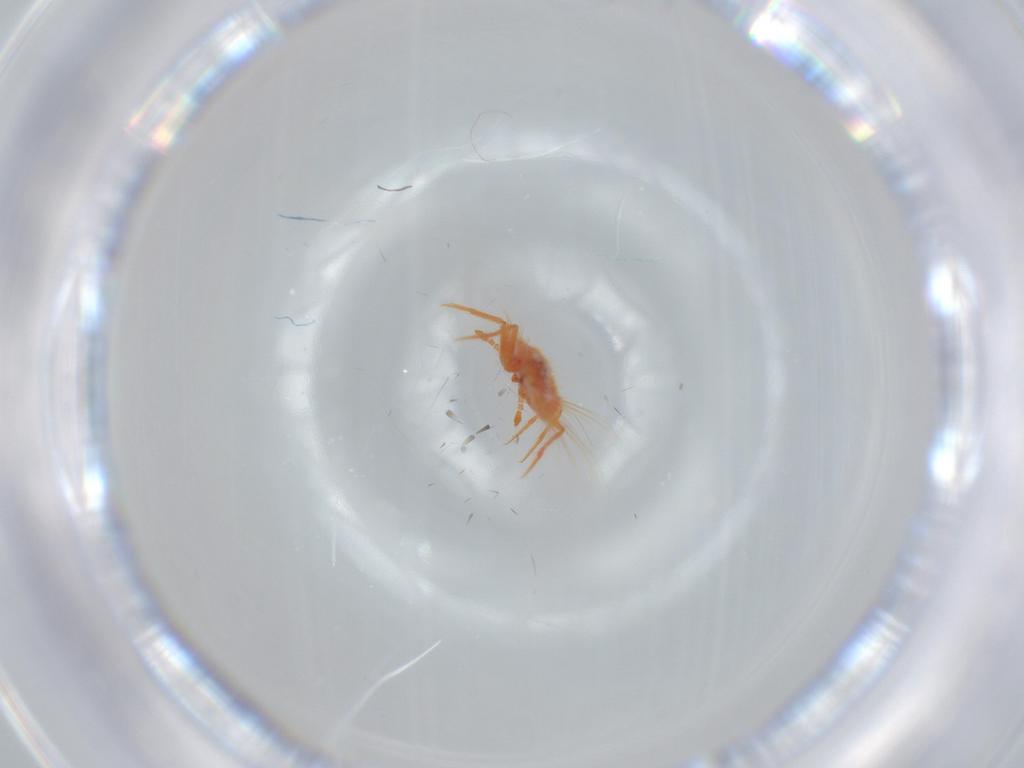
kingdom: Animalia
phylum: Arthropoda
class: Insecta
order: Hemiptera
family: Monophlebidae
